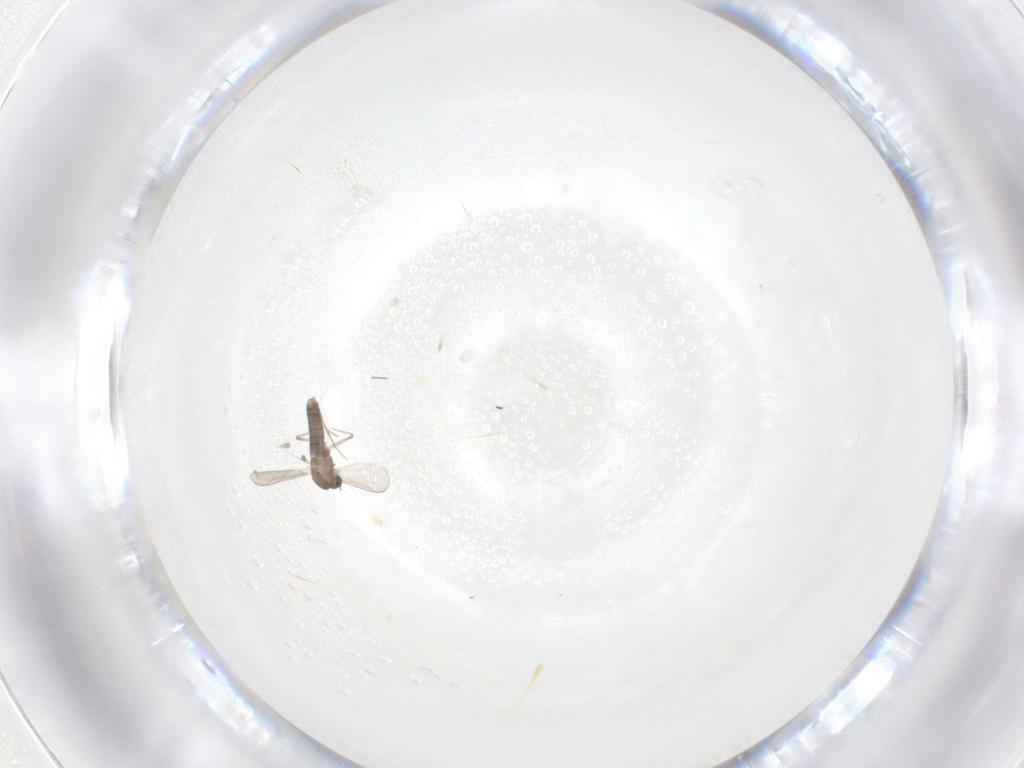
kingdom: Animalia
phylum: Arthropoda
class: Insecta
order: Diptera
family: Chironomidae
